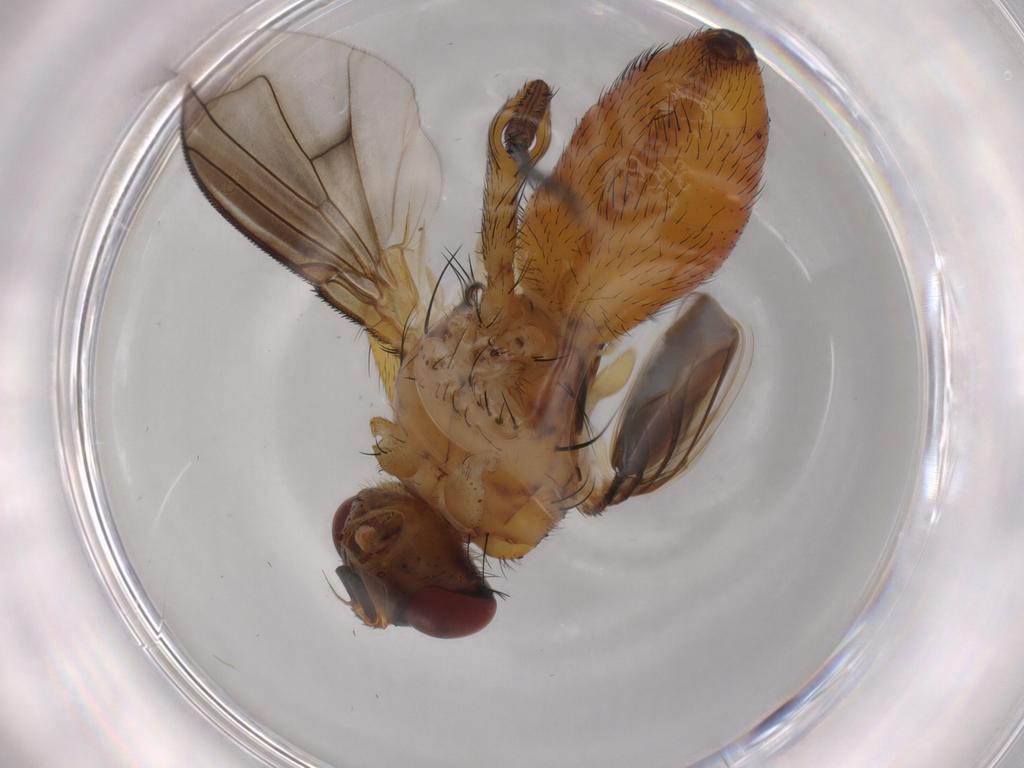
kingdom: Animalia
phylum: Arthropoda
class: Insecta
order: Diptera
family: Tachinidae
